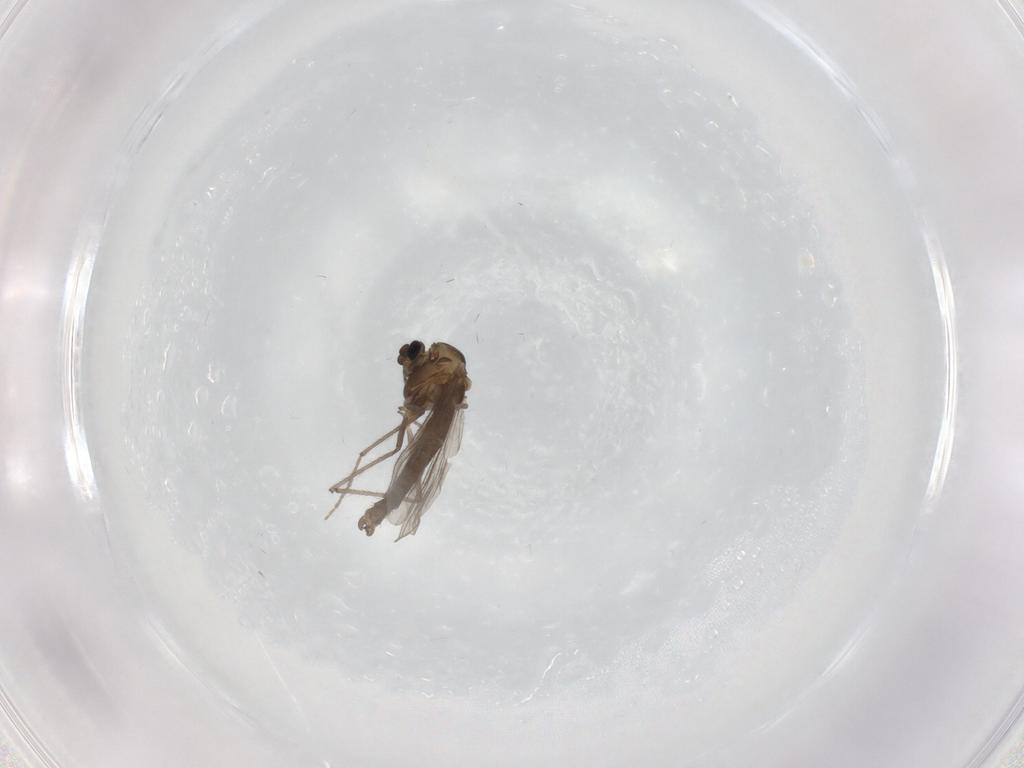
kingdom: Animalia
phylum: Arthropoda
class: Insecta
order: Diptera
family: Chironomidae
